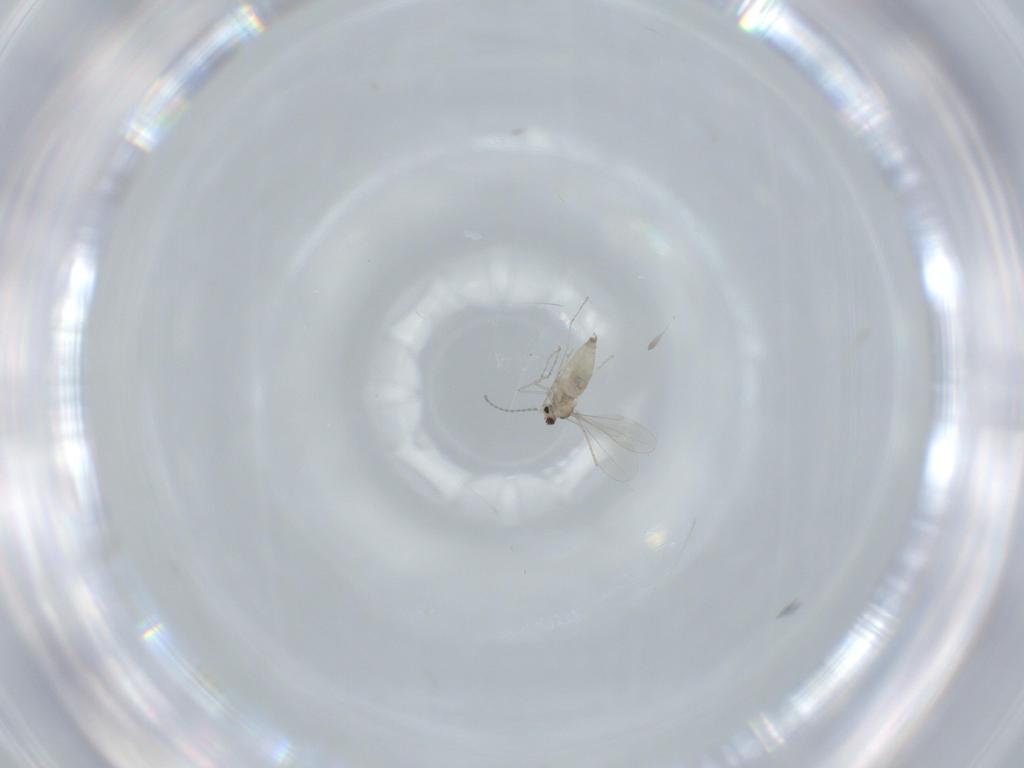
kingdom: Animalia
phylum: Arthropoda
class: Insecta
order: Diptera
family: Cecidomyiidae
